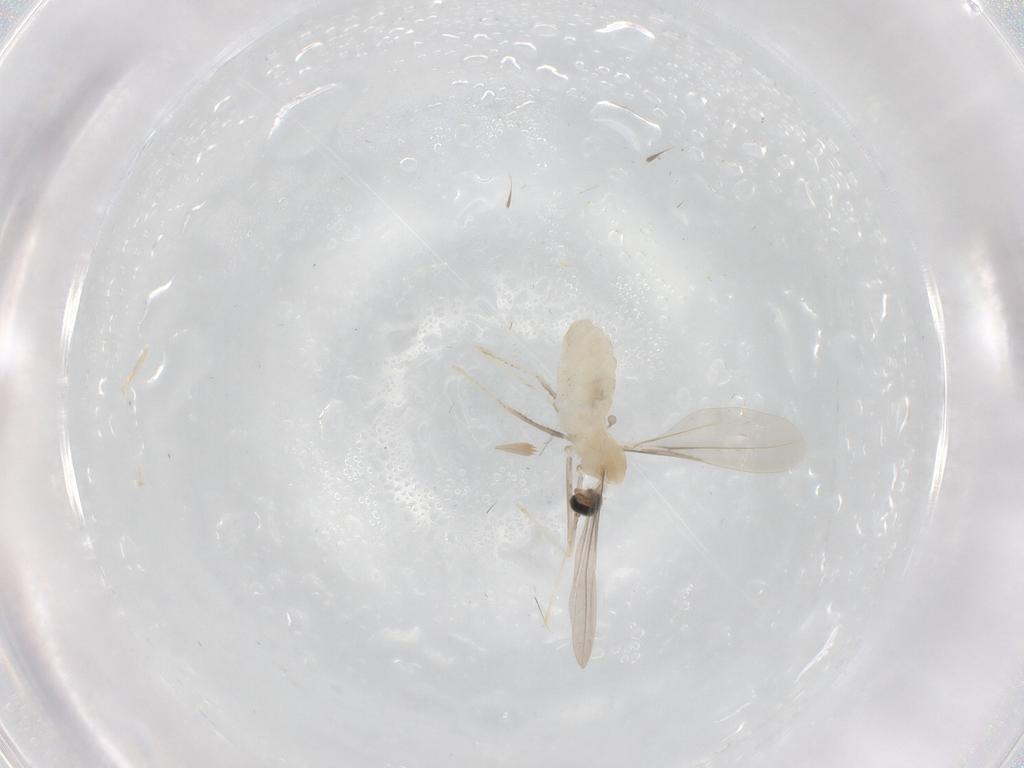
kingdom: Animalia
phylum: Arthropoda
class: Insecta
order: Diptera
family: Cecidomyiidae
